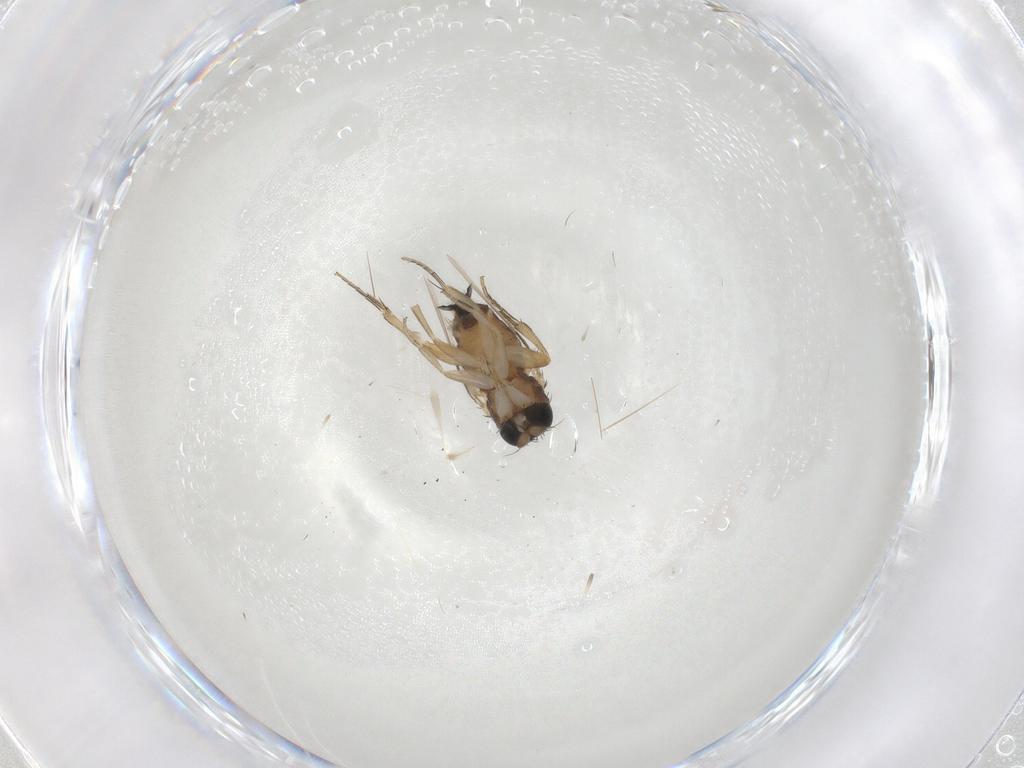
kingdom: Animalia
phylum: Arthropoda
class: Insecta
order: Diptera
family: Phoridae
